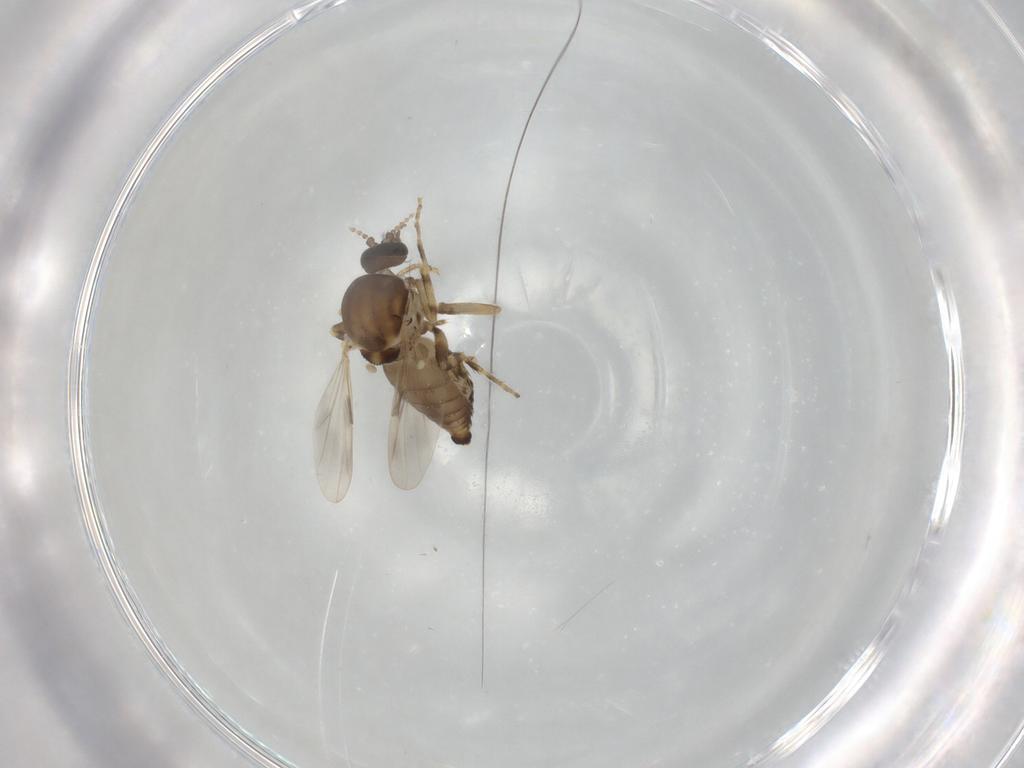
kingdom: Animalia
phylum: Arthropoda
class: Insecta
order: Diptera
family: Ceratopogonidae
